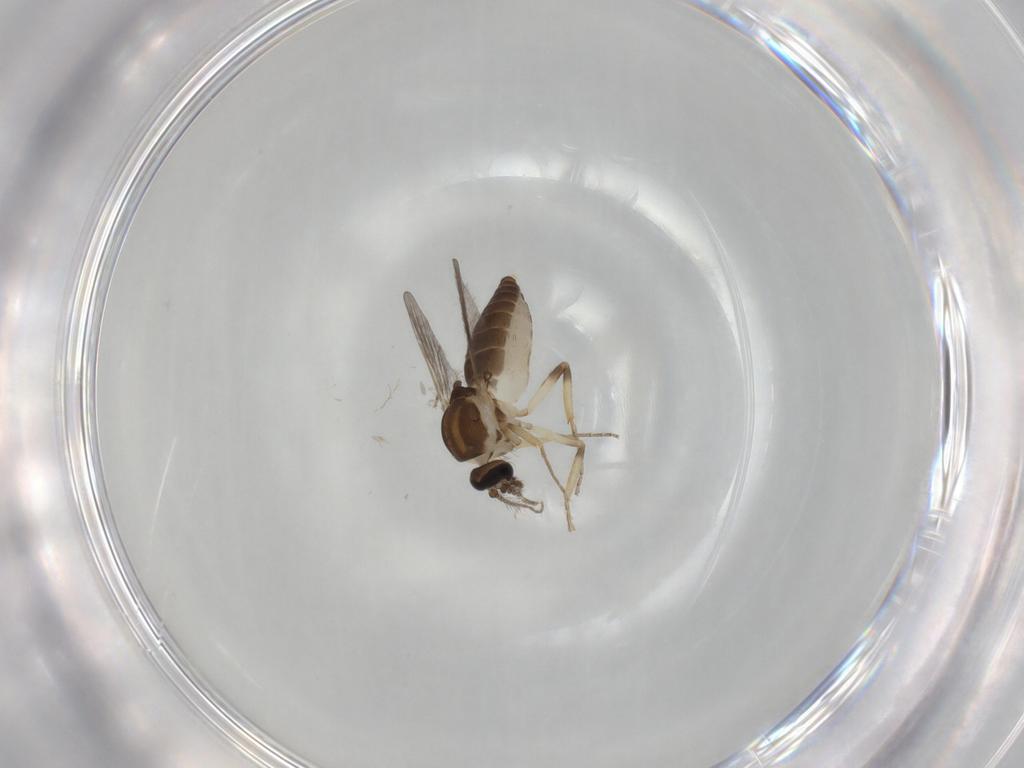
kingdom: Animalia
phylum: Arthropoda
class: Insecta
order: Diptera
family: Ceratopogonidae
